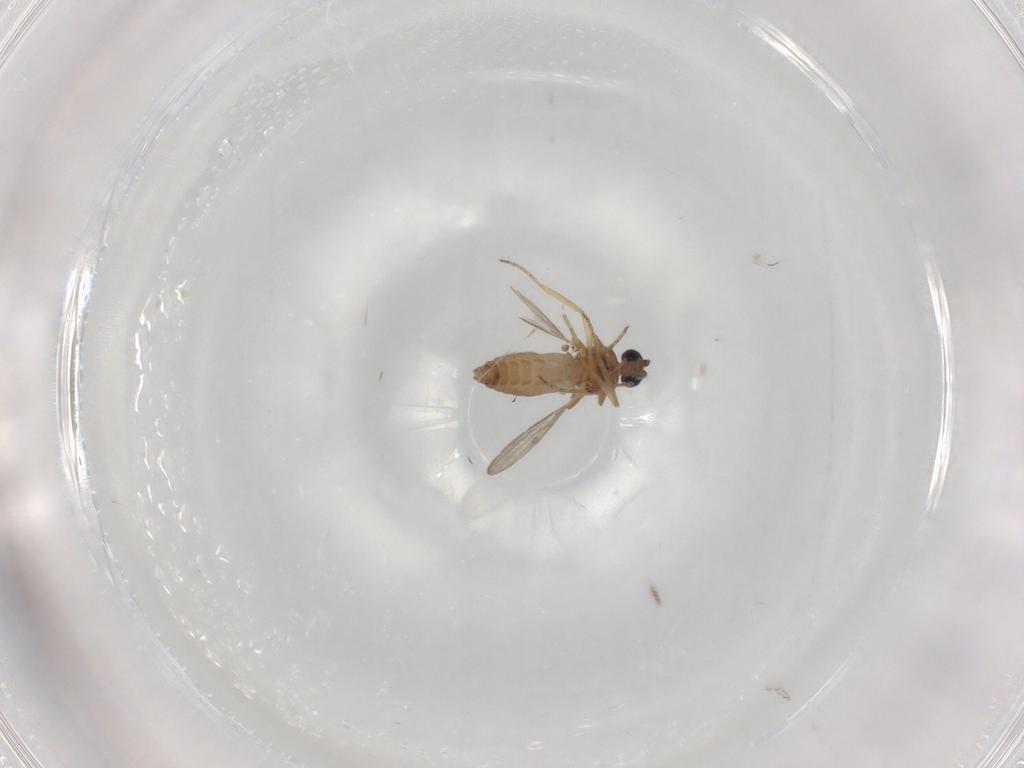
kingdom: Animalia
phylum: Arthropoda
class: Insecta
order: Diptera
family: Ceratopogonidae
